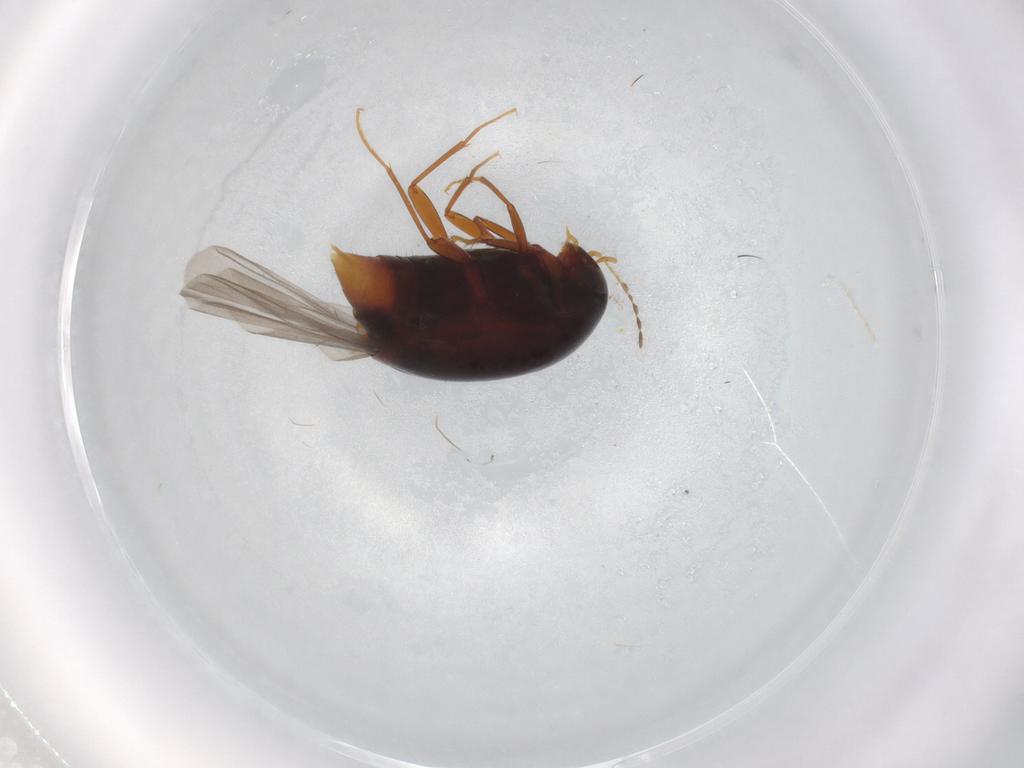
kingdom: Animalia
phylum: Arthropoda
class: Insecta
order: Coleoptera
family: Staphylinidae
